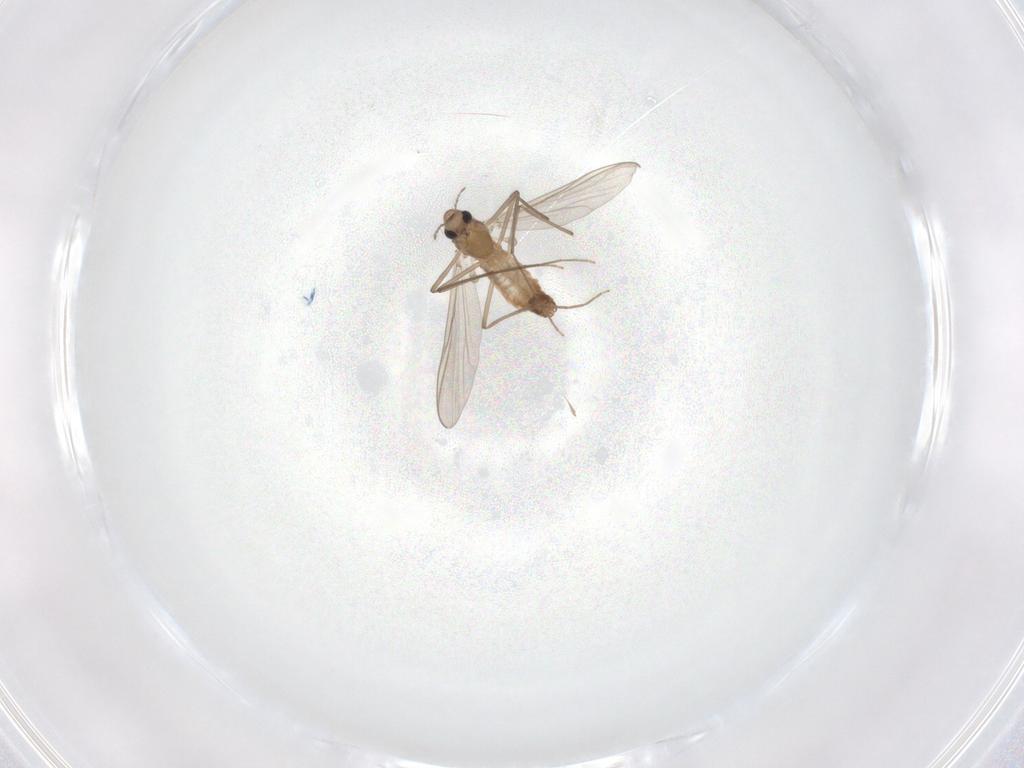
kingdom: Animalia
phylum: Arthropoda
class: Insecta
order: Diptera
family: Chironomidae
